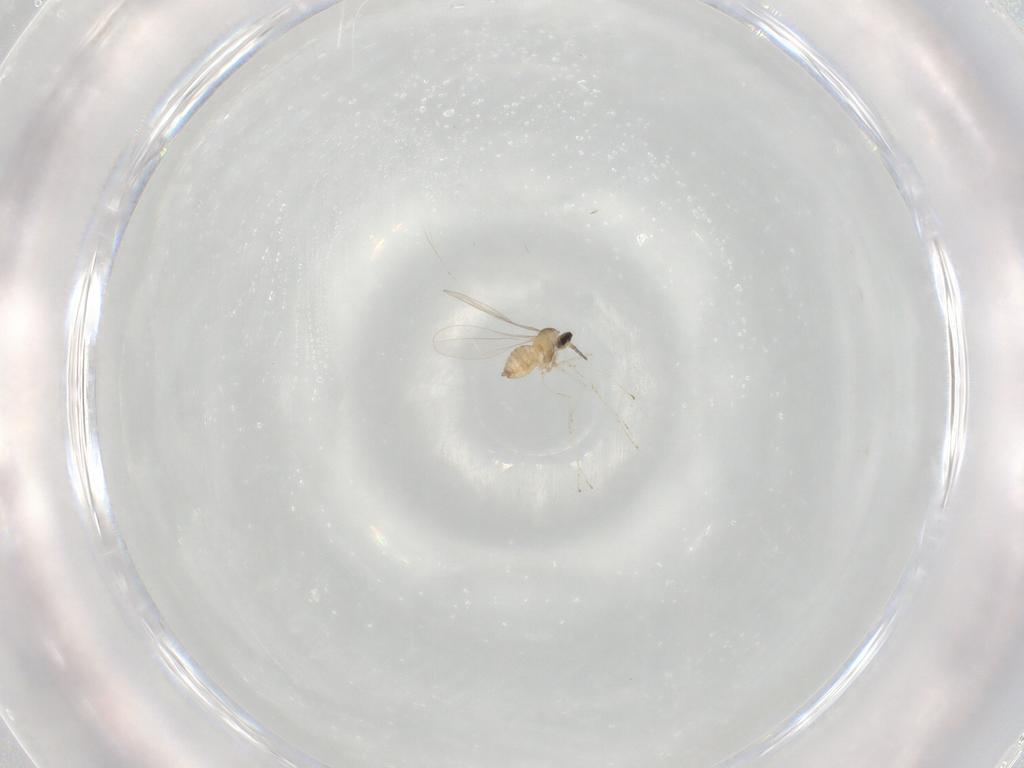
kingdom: Animalia
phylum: Arthropoda
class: Insecta
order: Diptera
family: Cecidomyiidae
